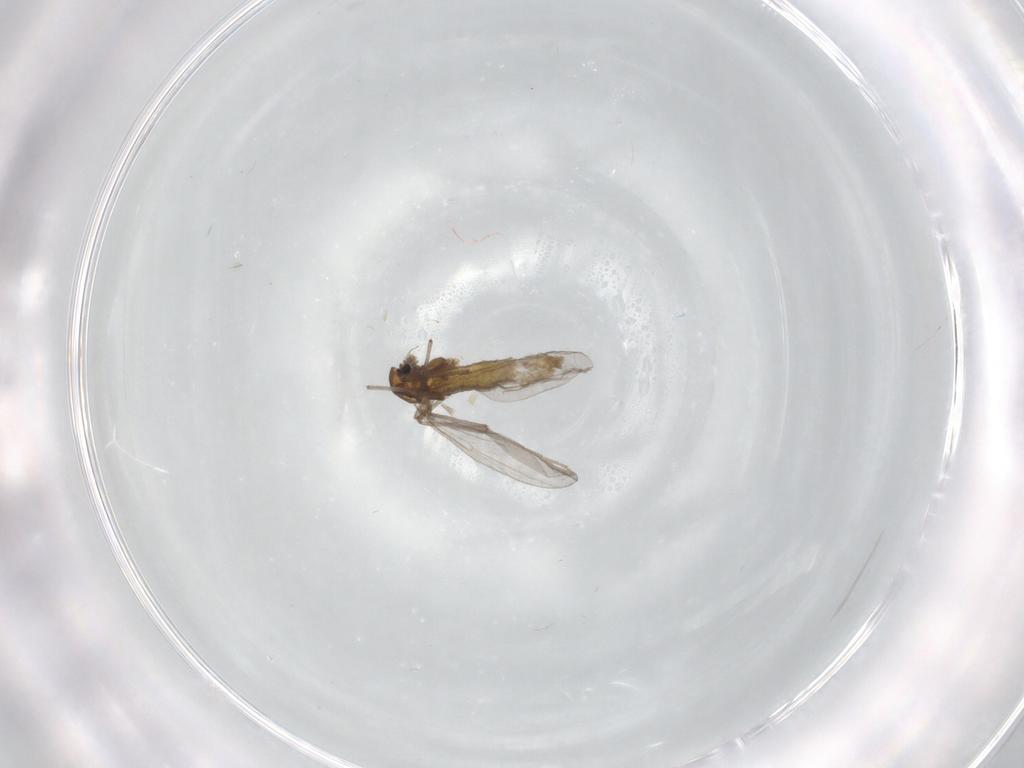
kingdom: Animalia
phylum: Arthropoda
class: Insecta
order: Diptera
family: Chironomidae
